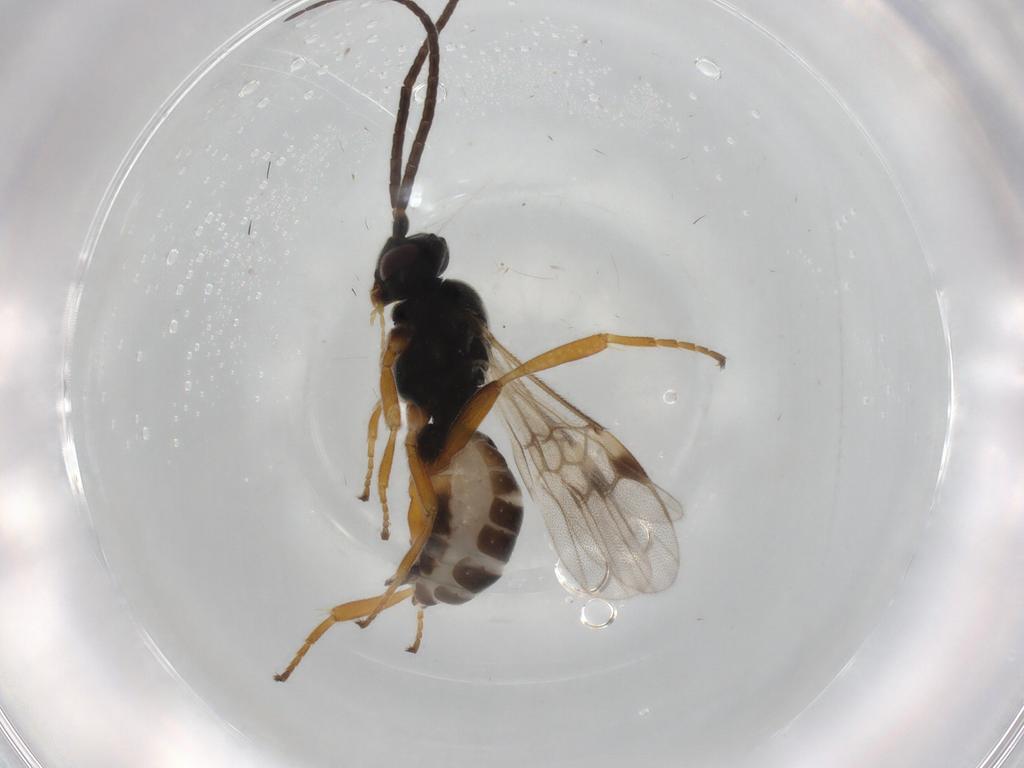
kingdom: Animalia
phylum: Arthropoda
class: Insecta
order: Hymenoptera
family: Braconidae
